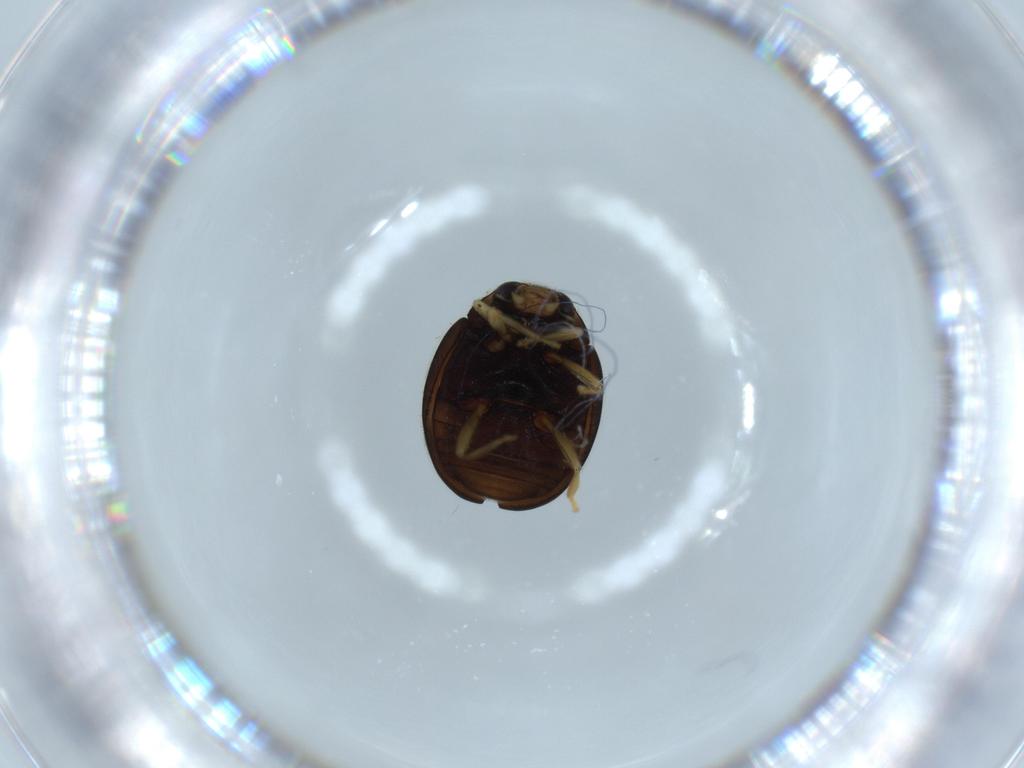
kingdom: Animalia
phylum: Arthropoda
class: Insecta
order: Coleoptera
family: Coccinellidae
